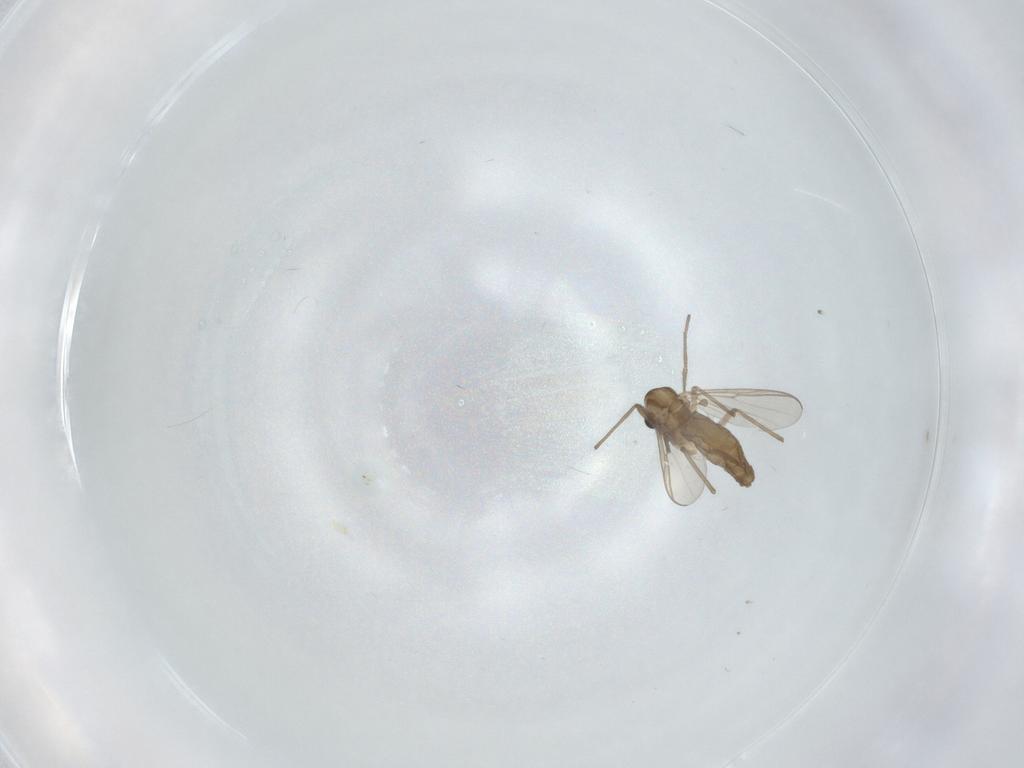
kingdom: Animalia
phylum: Arthropoda
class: Insecta
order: Diptera
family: Chironomidae
